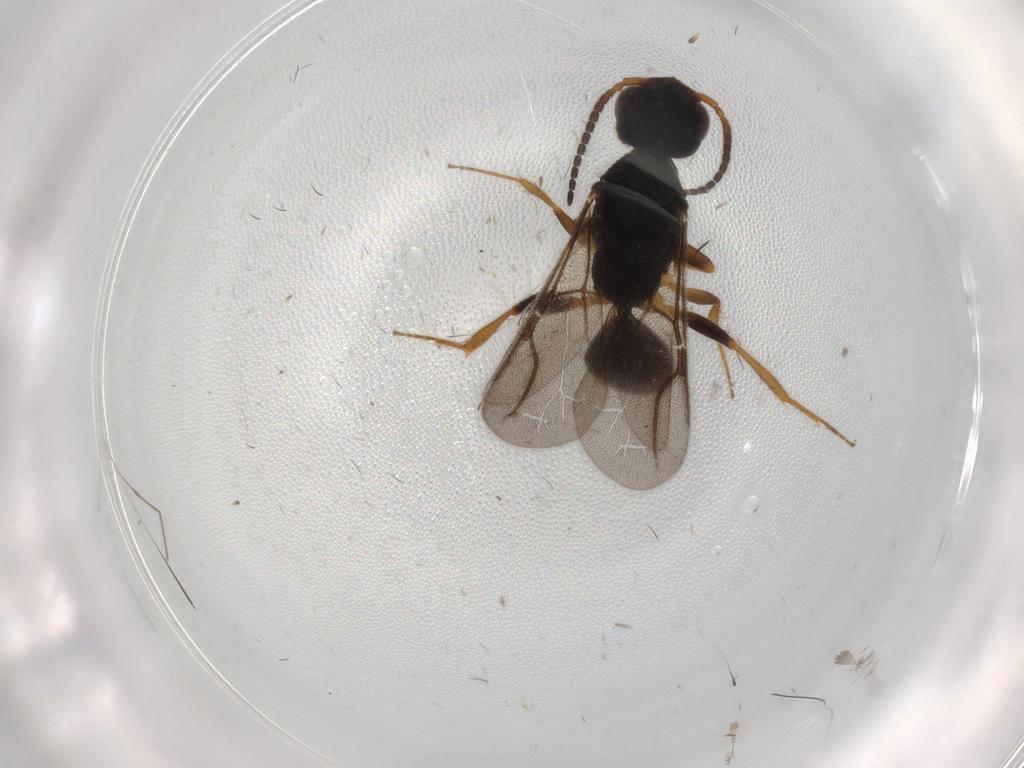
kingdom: Animalia
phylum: Arthropoda
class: Insecta
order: Hymenoptera
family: Bethylidae
